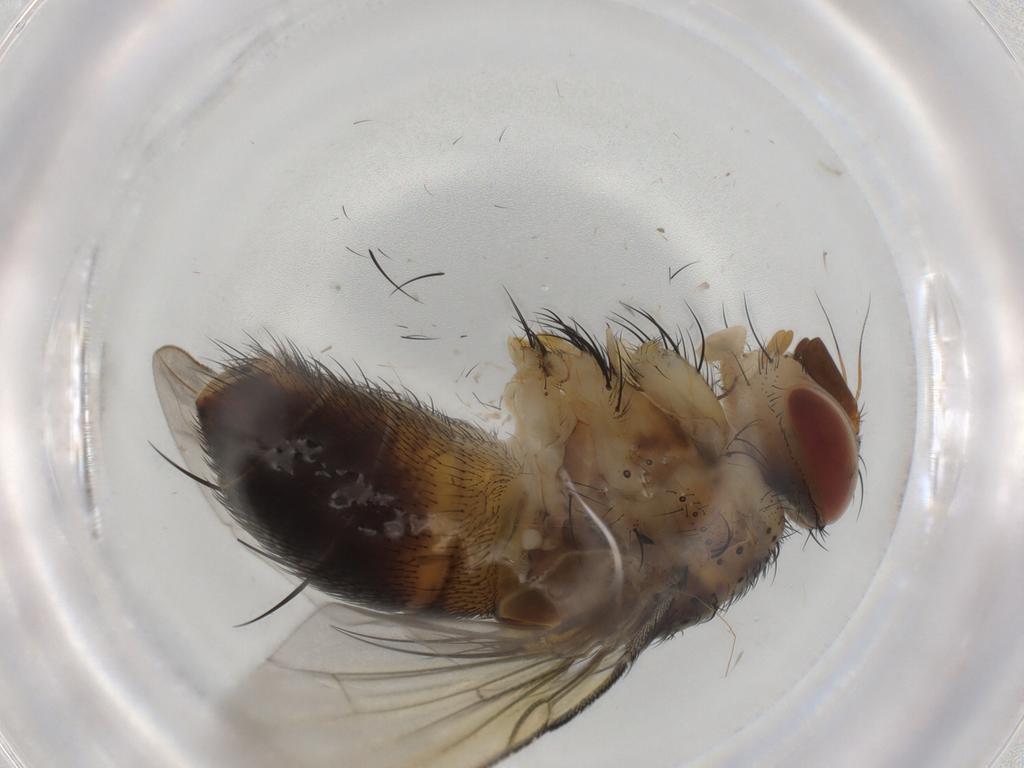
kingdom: Animalia
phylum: Arthropoda
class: Insecta
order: Diptera
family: Tachinidae
